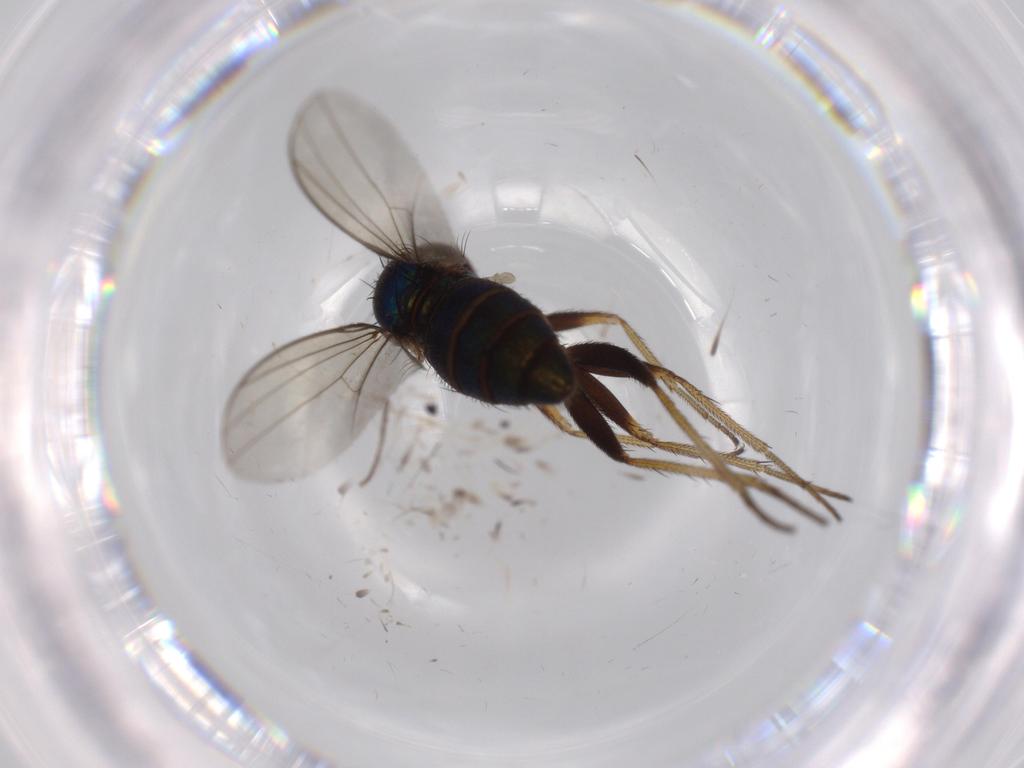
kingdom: Animalia
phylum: Arthropoda
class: Insecta
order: Diptera
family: Dolichopodidae
